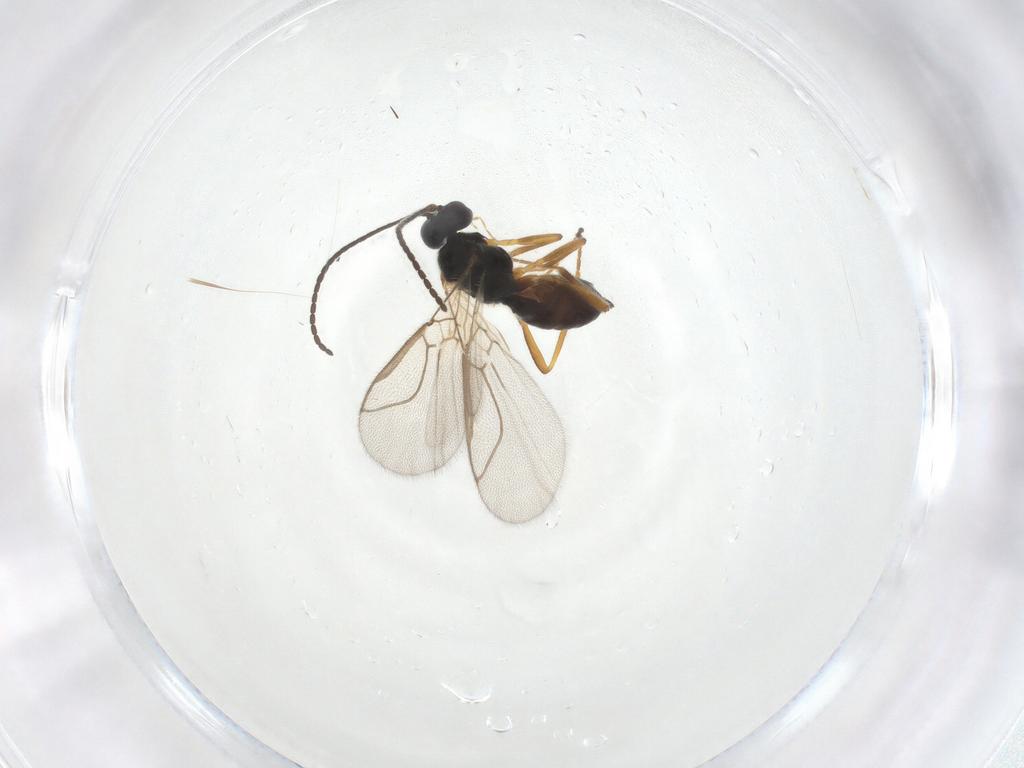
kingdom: Animalia
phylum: Arthropoda
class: Insecta
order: Hymenoptera
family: Braconidae
